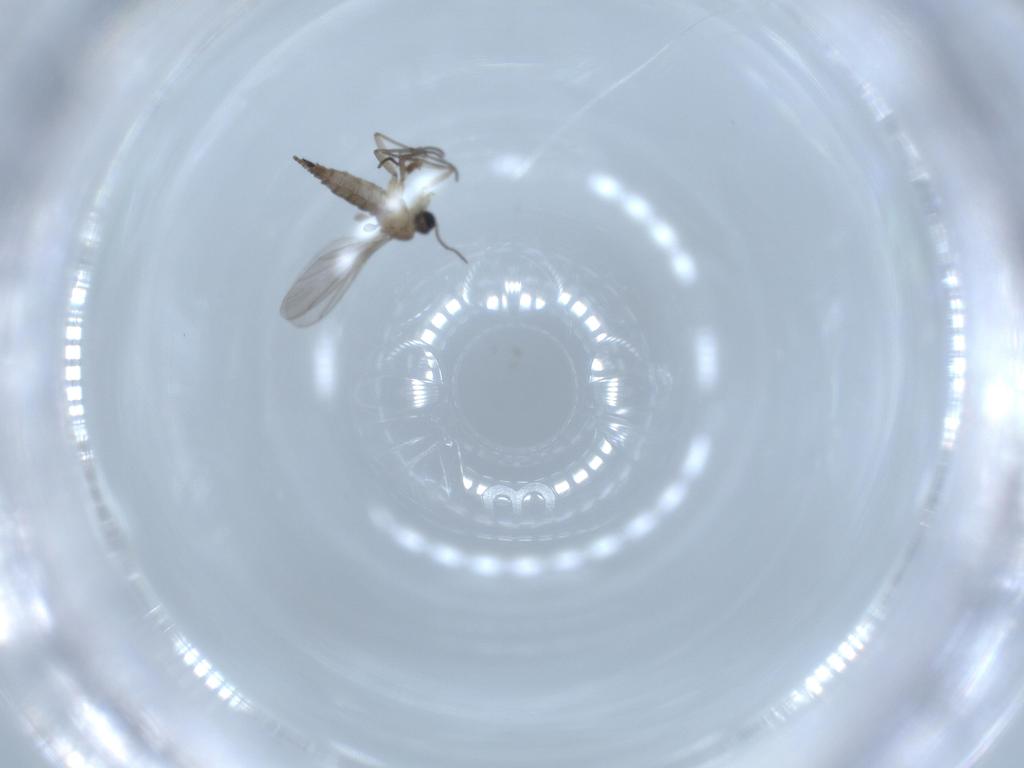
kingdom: Animalia
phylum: Arthropoda
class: Insecta
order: Diptera
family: Sciaridae
